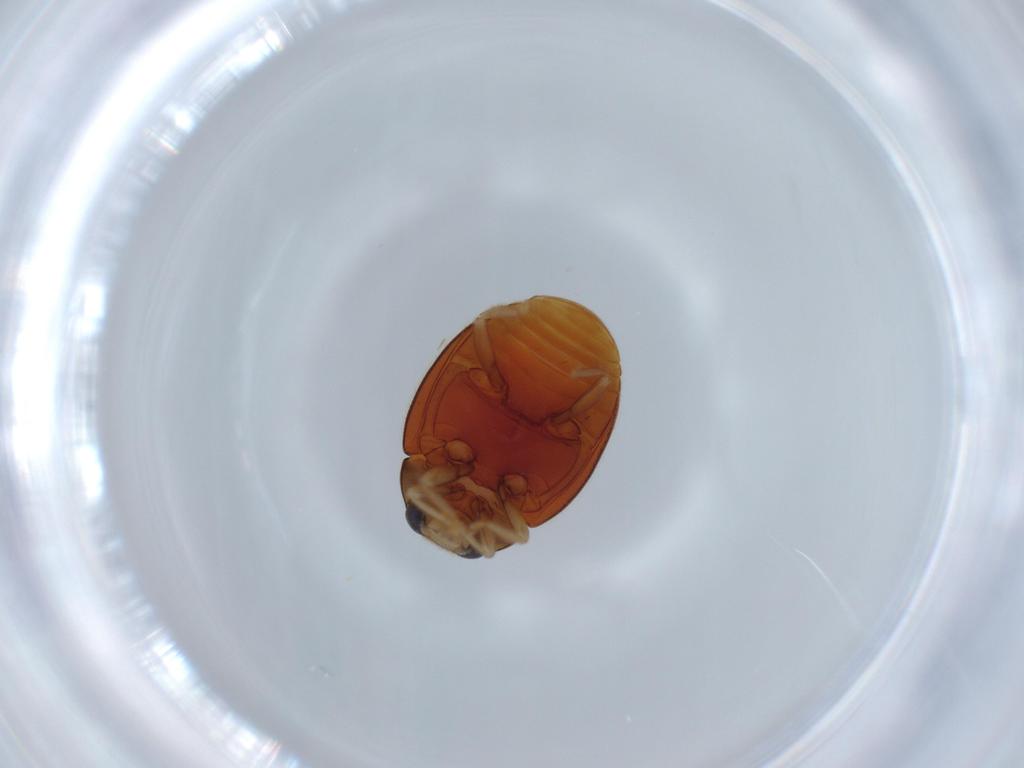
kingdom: Animalia
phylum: Arthropoda
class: Insecta
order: Coleoptera
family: Coccinellidae
